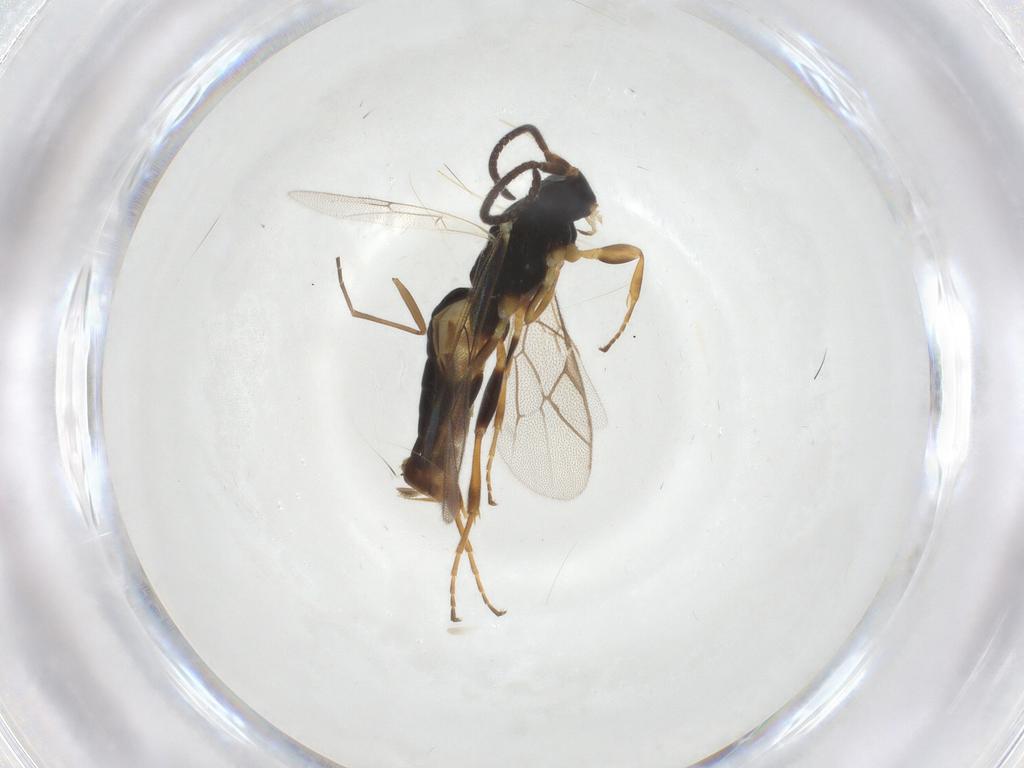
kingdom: Animalia
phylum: Arthropoda
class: Insecta
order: Hymenoptera
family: Ichneumonidae
